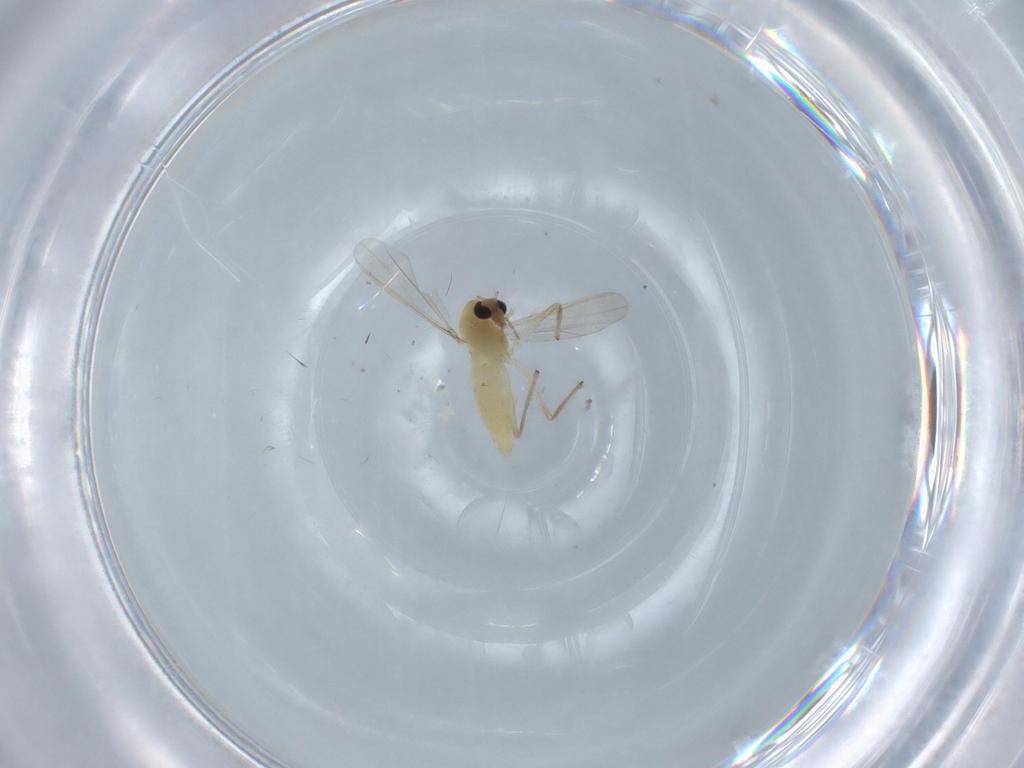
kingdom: Animalia
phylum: Arthropoda
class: Insecta
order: Diptera
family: Chironomidae
